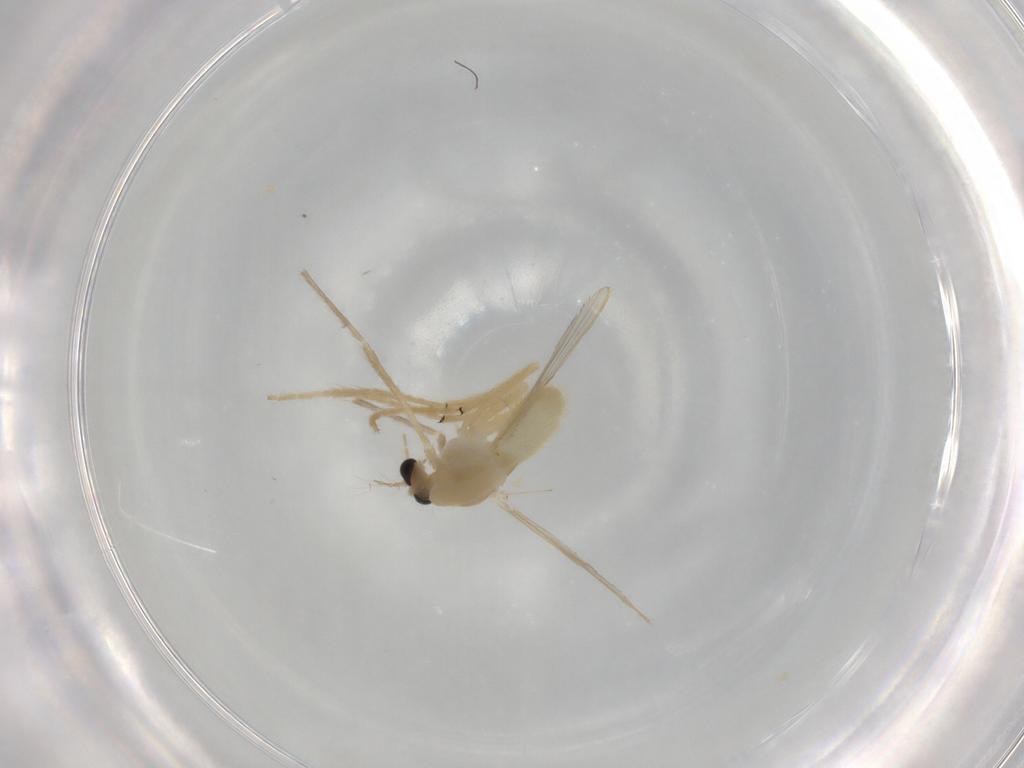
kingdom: Animalia
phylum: Arthropoda
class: Insecta
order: Diptera
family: Chironomidae
